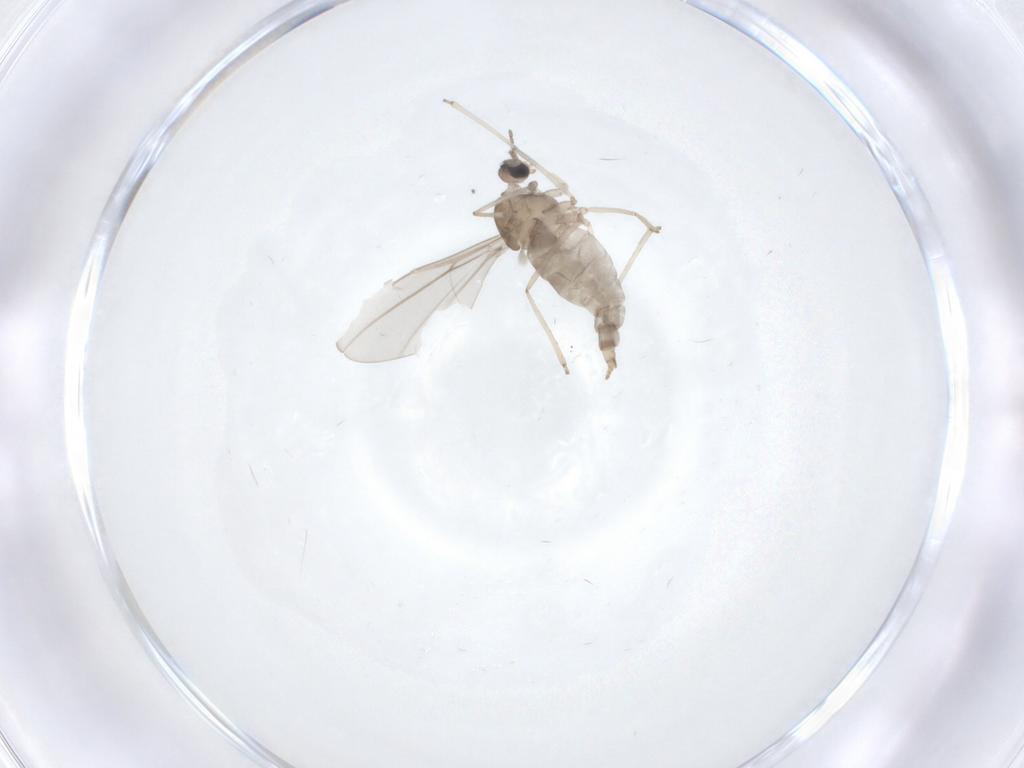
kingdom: Animalia
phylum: Arthropoda
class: Insecta
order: Diptera
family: Cecidomyiidae
